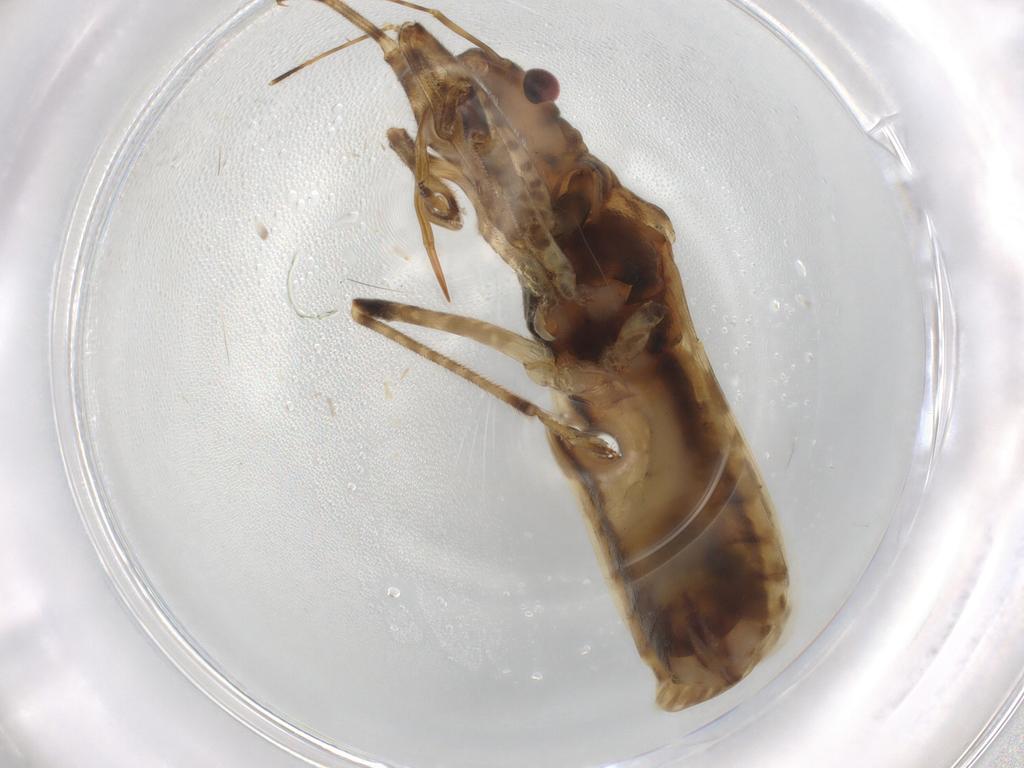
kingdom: Animalia
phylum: Arthropoda
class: Insecta
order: Hemiptera
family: Nabidae
